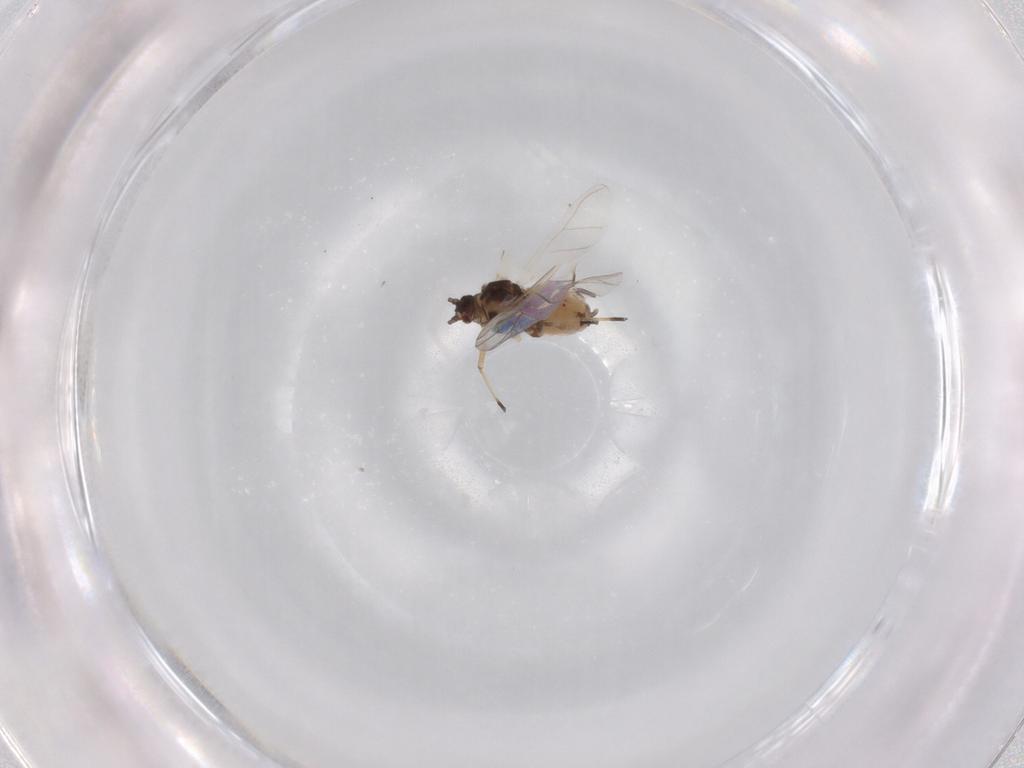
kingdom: Animalia
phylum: Arthropoda
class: Insecta
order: Hemiptera
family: Aphididae
